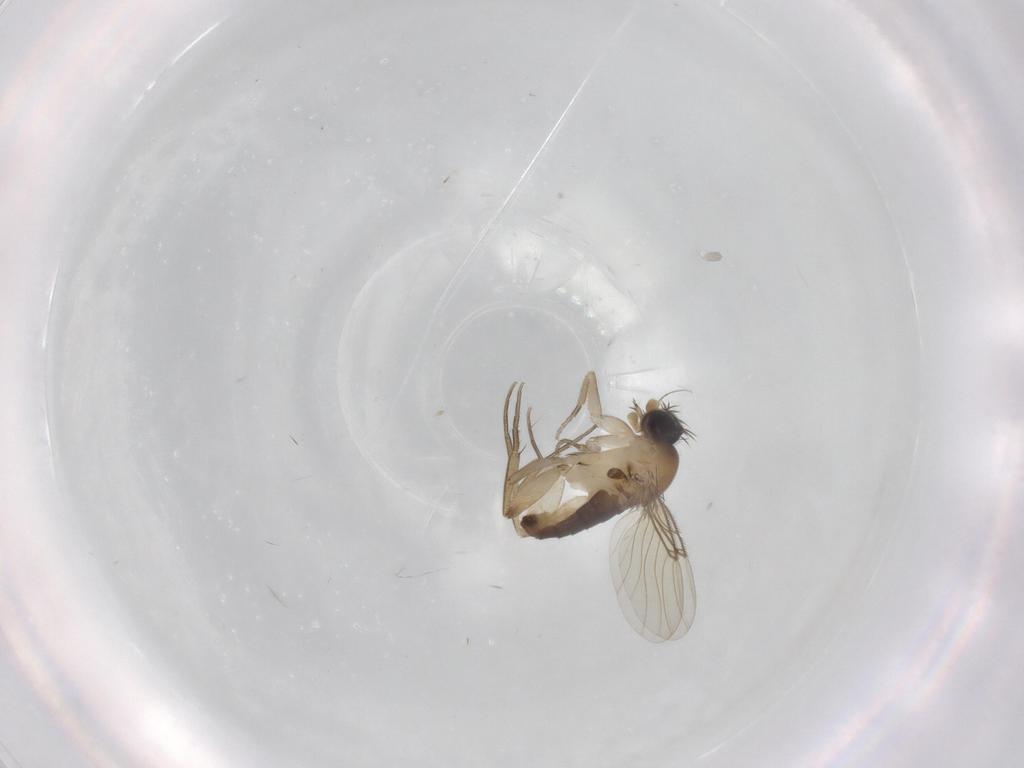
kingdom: Animalia
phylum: Arthropoda
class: Insecta
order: Diptera
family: Phoridae
